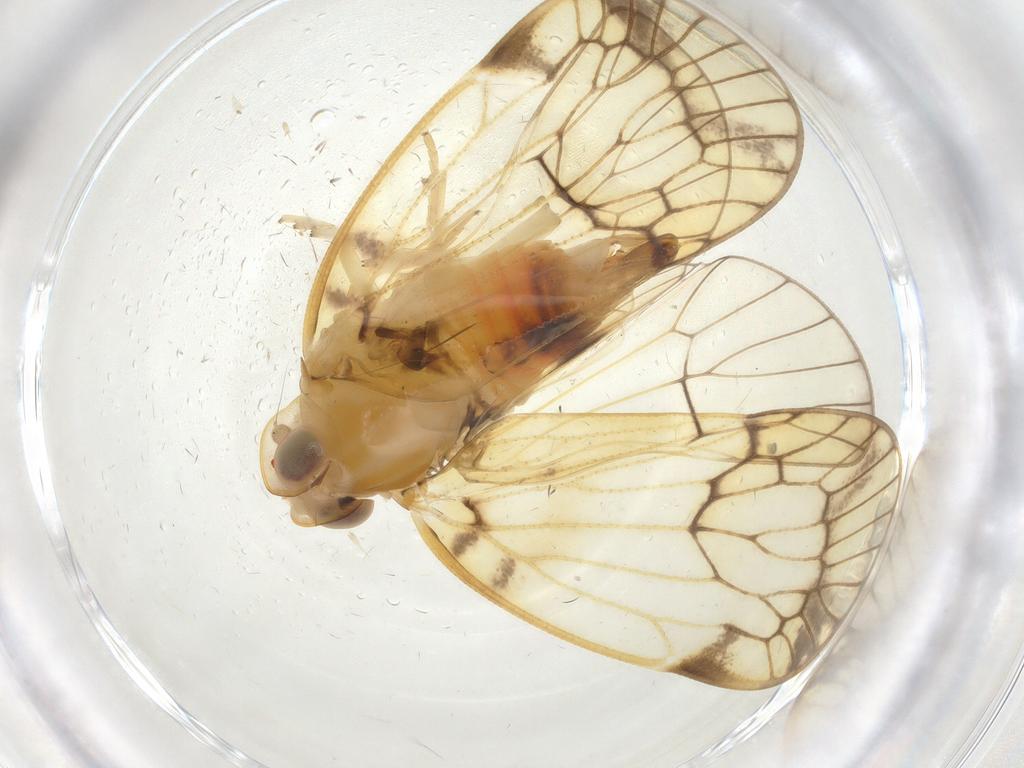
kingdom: Animalia
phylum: Arthropoda
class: Insecta
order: Hemiptera
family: Cixiidae
